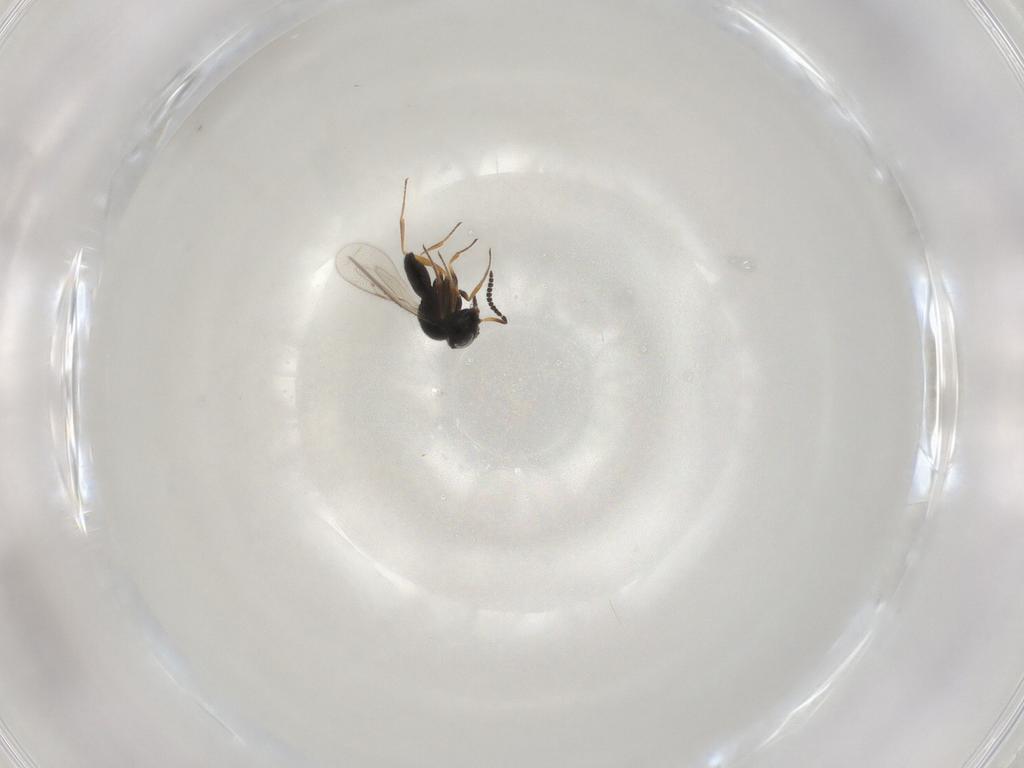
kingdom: Animalia
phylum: Arthropoda
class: Insecta
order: Hymenoptera
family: Scelionidae
